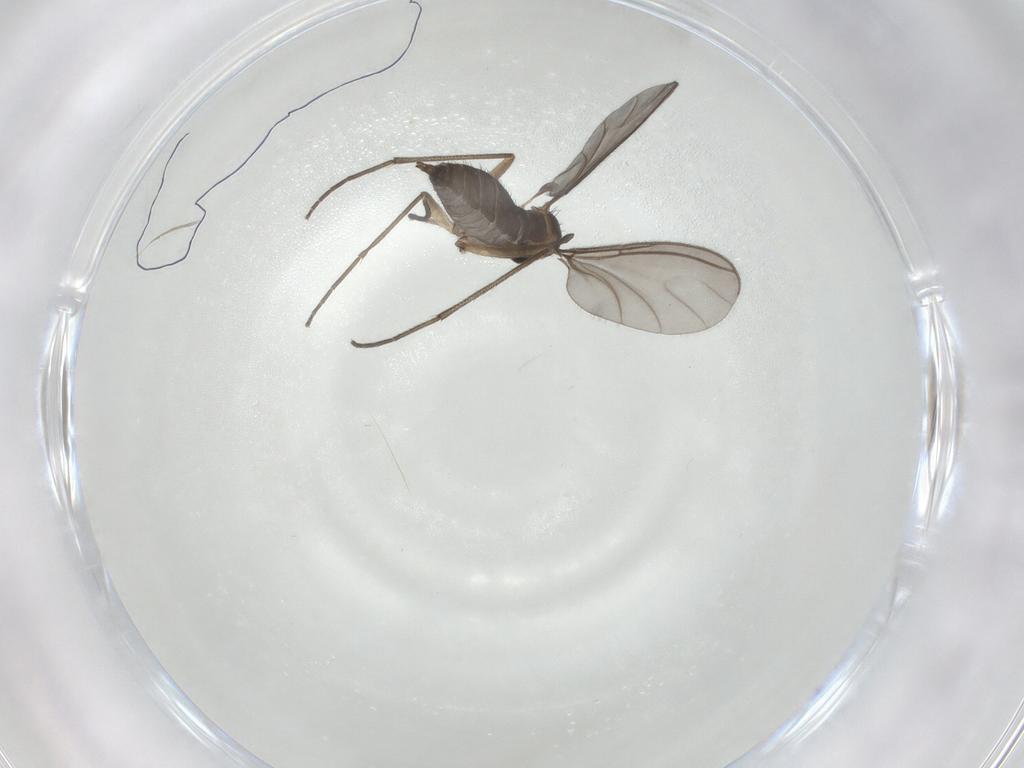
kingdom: Animalia
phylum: Arthropoda
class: Insecta
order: Diptera
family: Sciaridae
